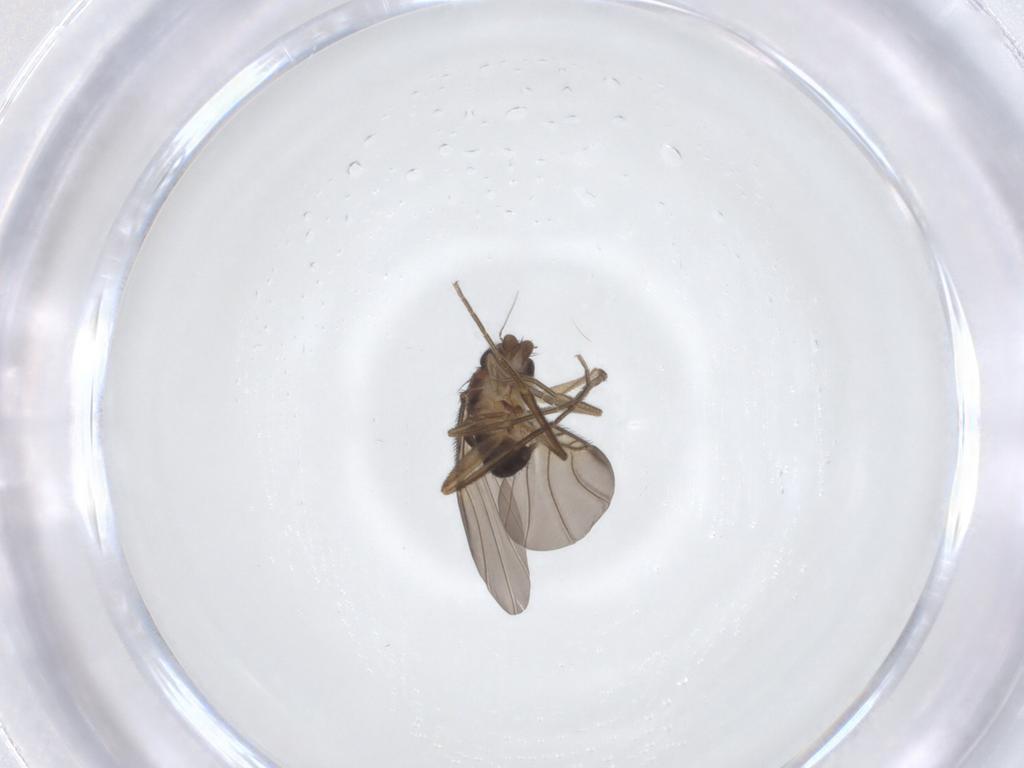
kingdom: Animalia
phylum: Arthropoda
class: Insecta
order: Diptera
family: Phoridae
